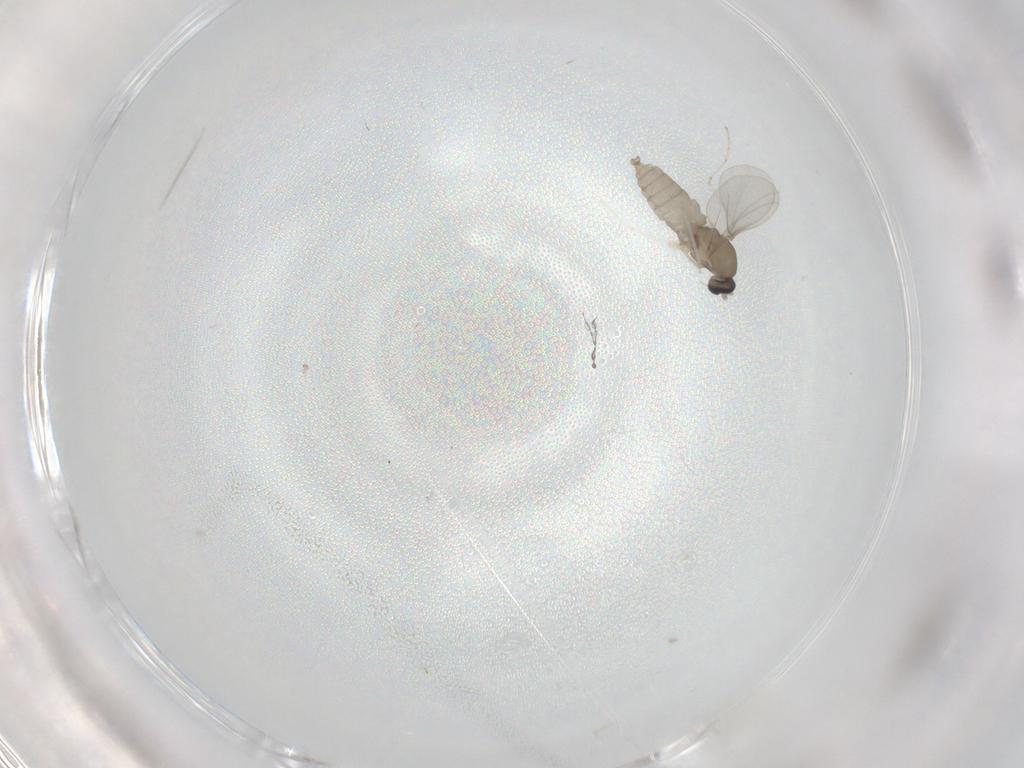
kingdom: Animalia
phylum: Arthropoda
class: Insecta
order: Diptera
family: Cecidomyiidae
